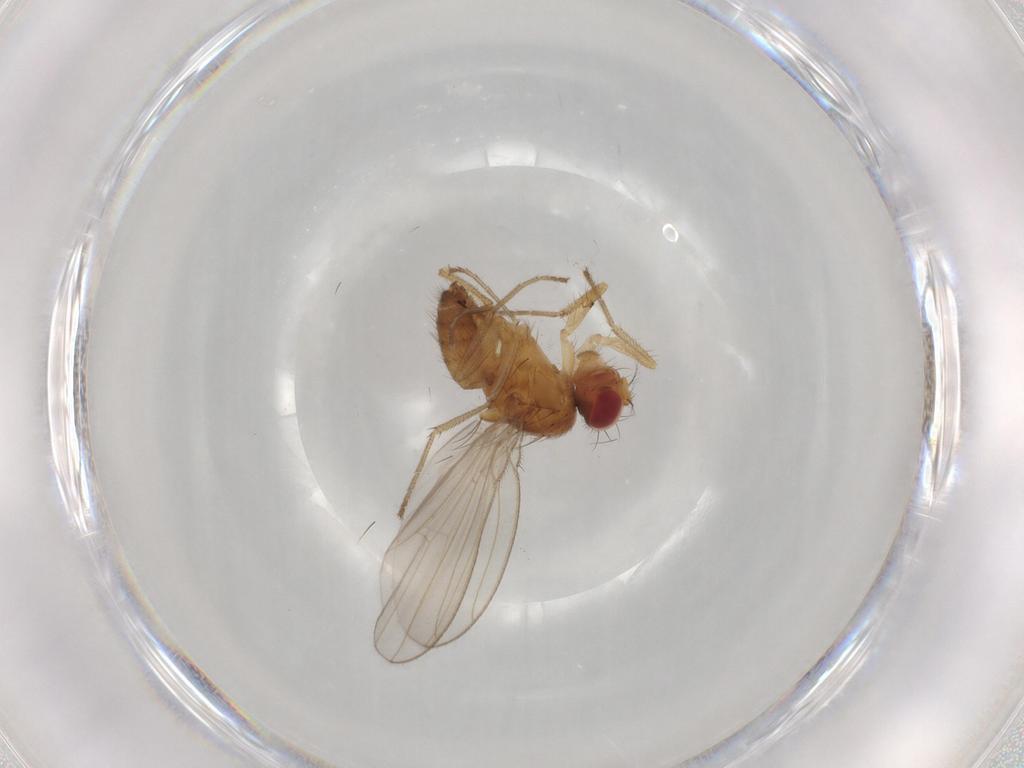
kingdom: Animalia
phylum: Arthropoda
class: Insecta
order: Diptera
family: Drosophilidae
